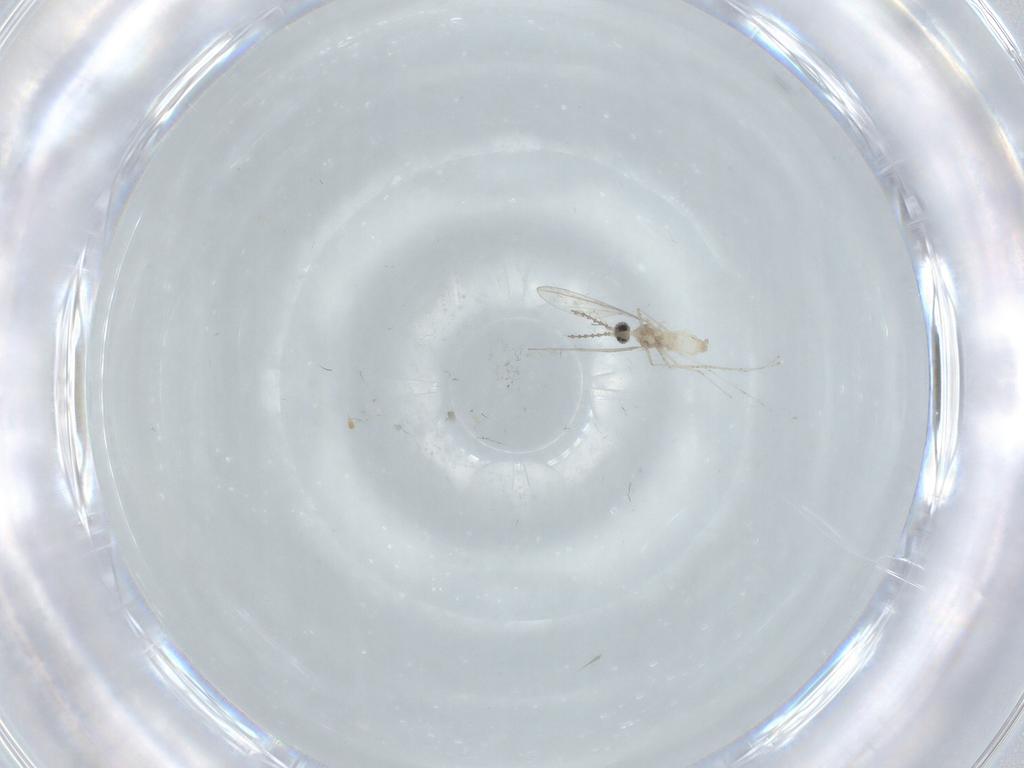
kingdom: Animalia
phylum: Arthropoda
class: Insecta
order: Diptera
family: Cecidomyiidae
